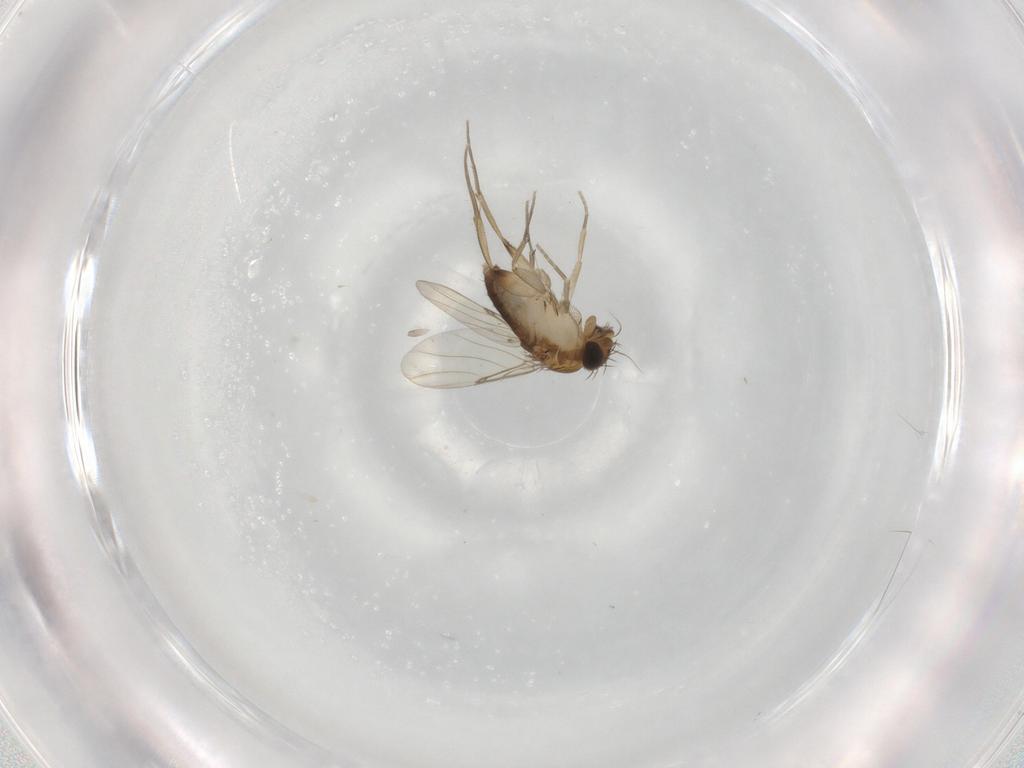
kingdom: Animalia
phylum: Arthropoda
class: Insecta
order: Diptera
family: Phoridae
